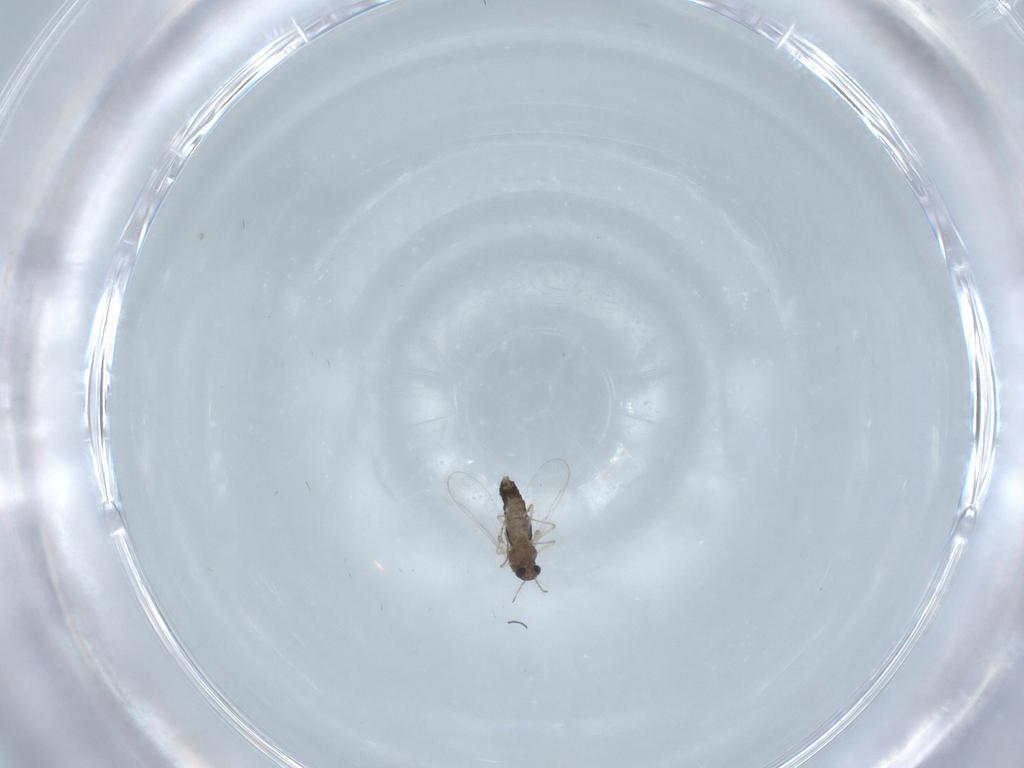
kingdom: Animalia
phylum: Arthropoda
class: Insecta
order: Diptera
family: Chironomidae
